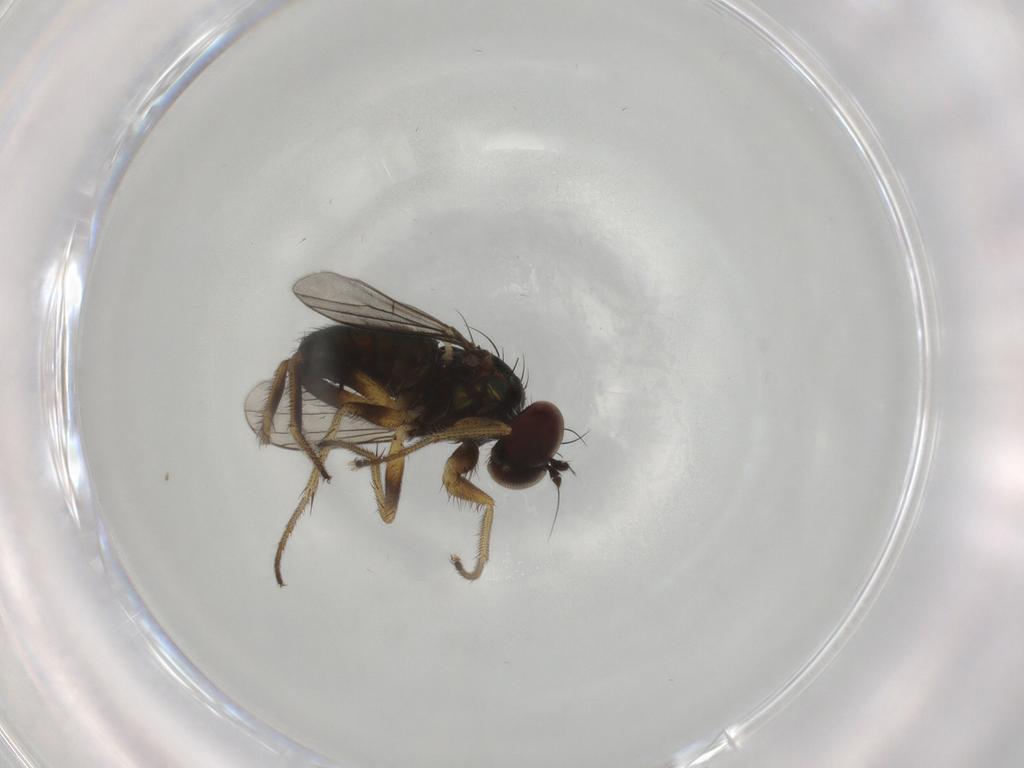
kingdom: Animalia
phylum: Arthropoda
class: Insecta
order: Diptera
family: Dolichopodidae
